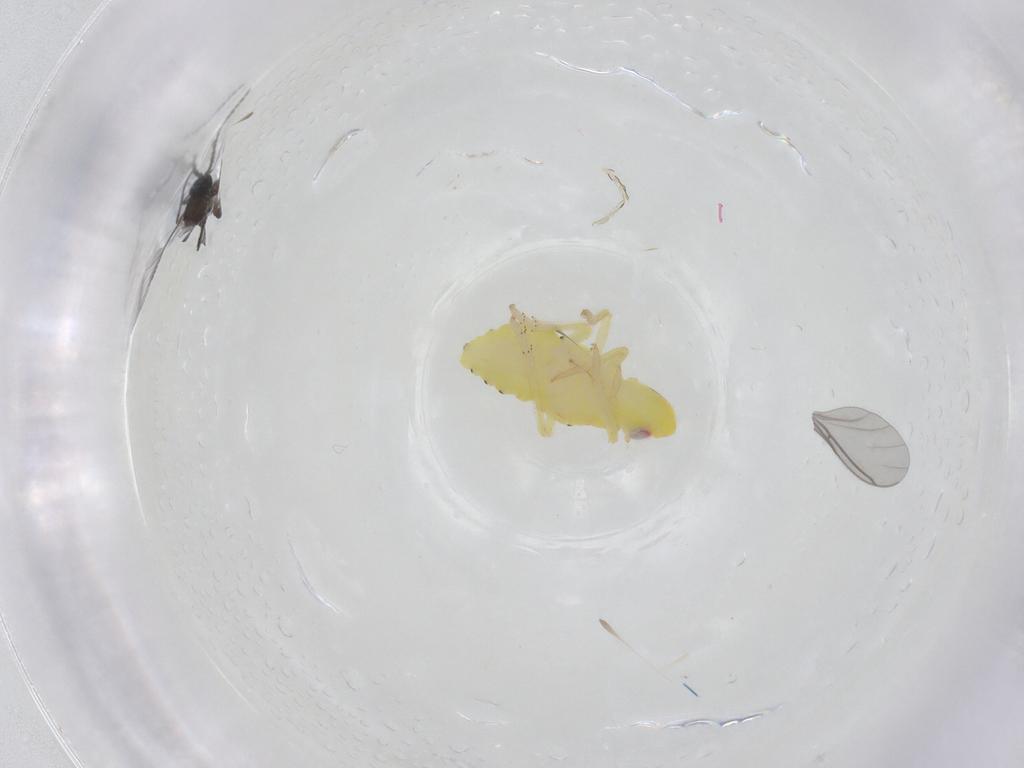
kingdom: Animalia
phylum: Arthropoda
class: Insecta
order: Hemiptera
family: Tropiduchidae
